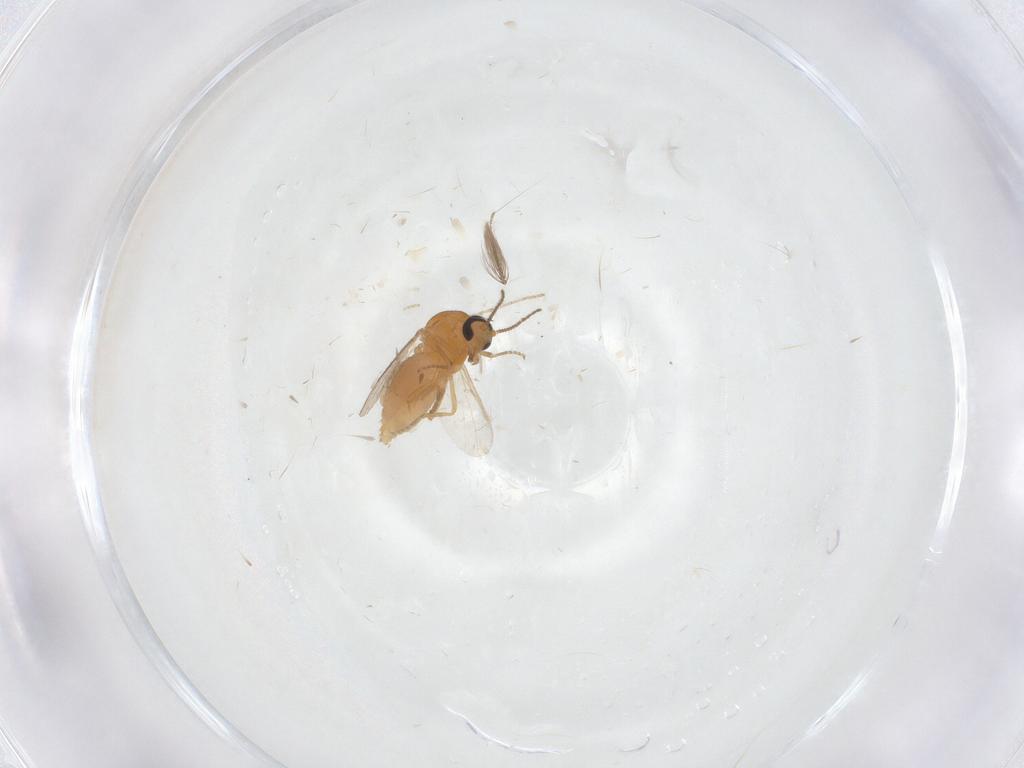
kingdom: Animalia
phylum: Arthropoda
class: Insecta
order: Diptera
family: Ceratopogonidae
